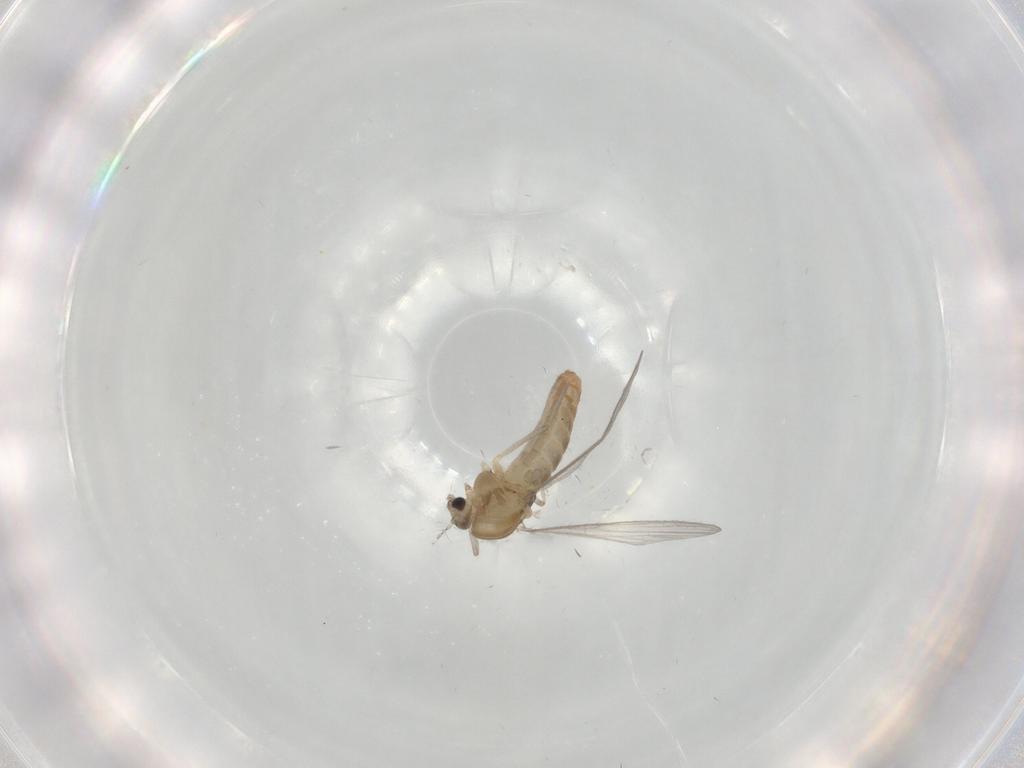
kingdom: Animalia
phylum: Arthropoda
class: Insecta
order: Diptera
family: Chironomidae
